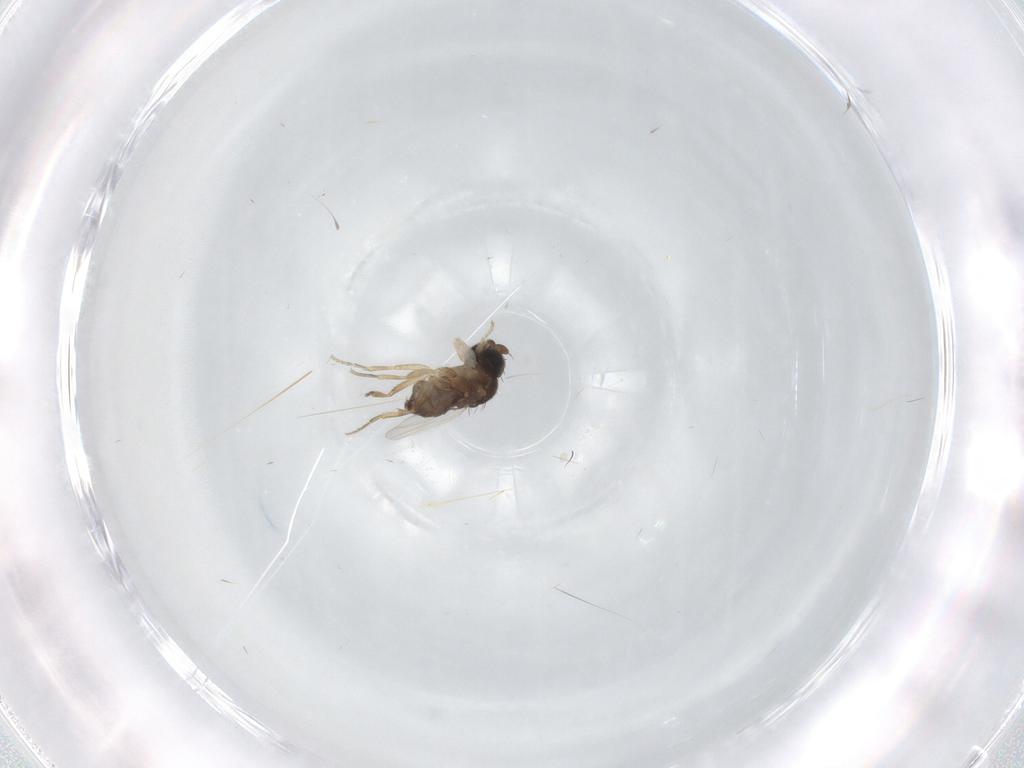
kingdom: Animalia
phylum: Arthropoda
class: Insecta
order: Diptera
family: Phoridae
